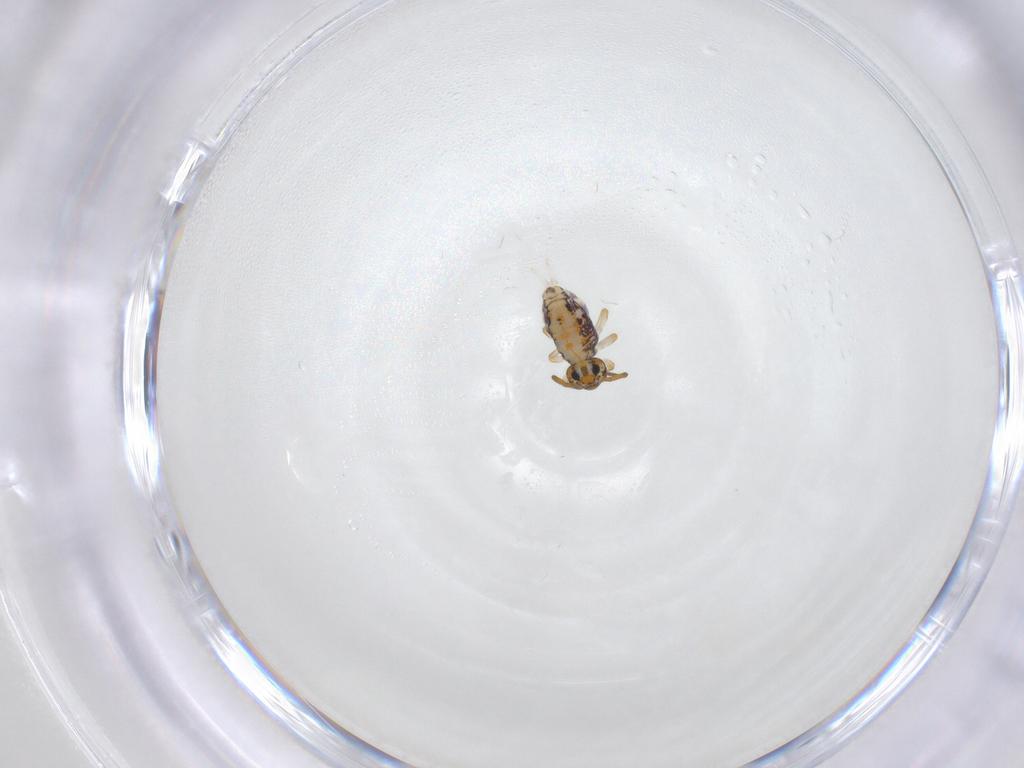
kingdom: Animalia
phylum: Arthropoda
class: Collembola
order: Symphypleona
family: Katiannidae
